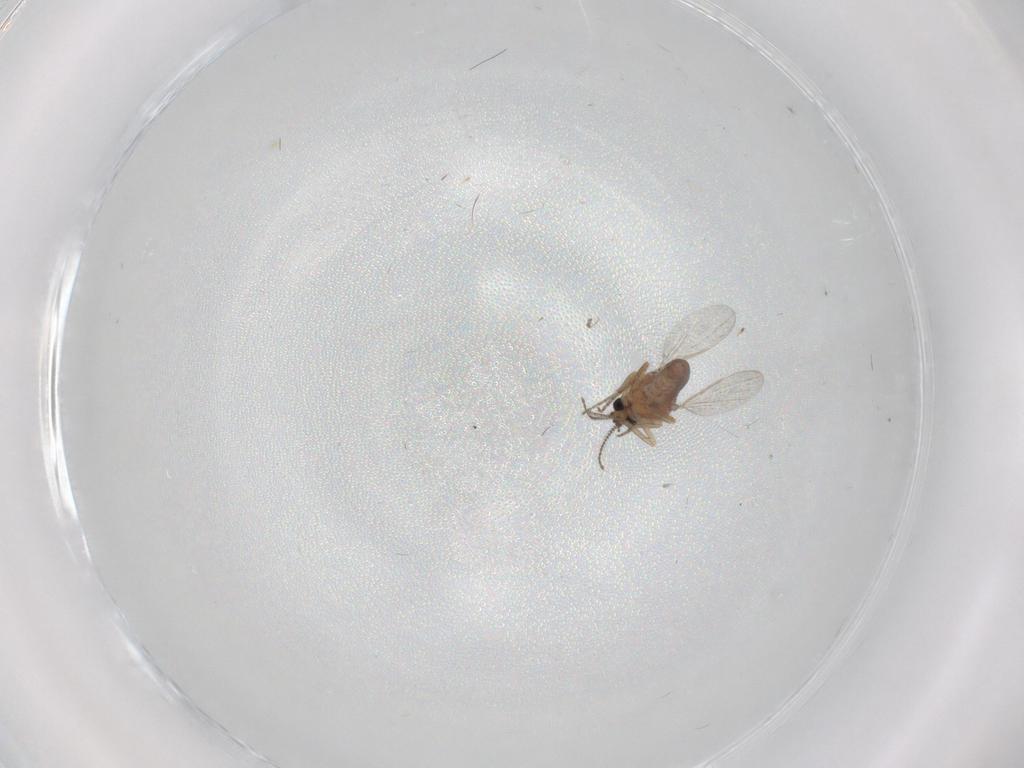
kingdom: Animalia
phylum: Arthropoda
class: Insecta
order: Diptera
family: Ceratopogonidae
